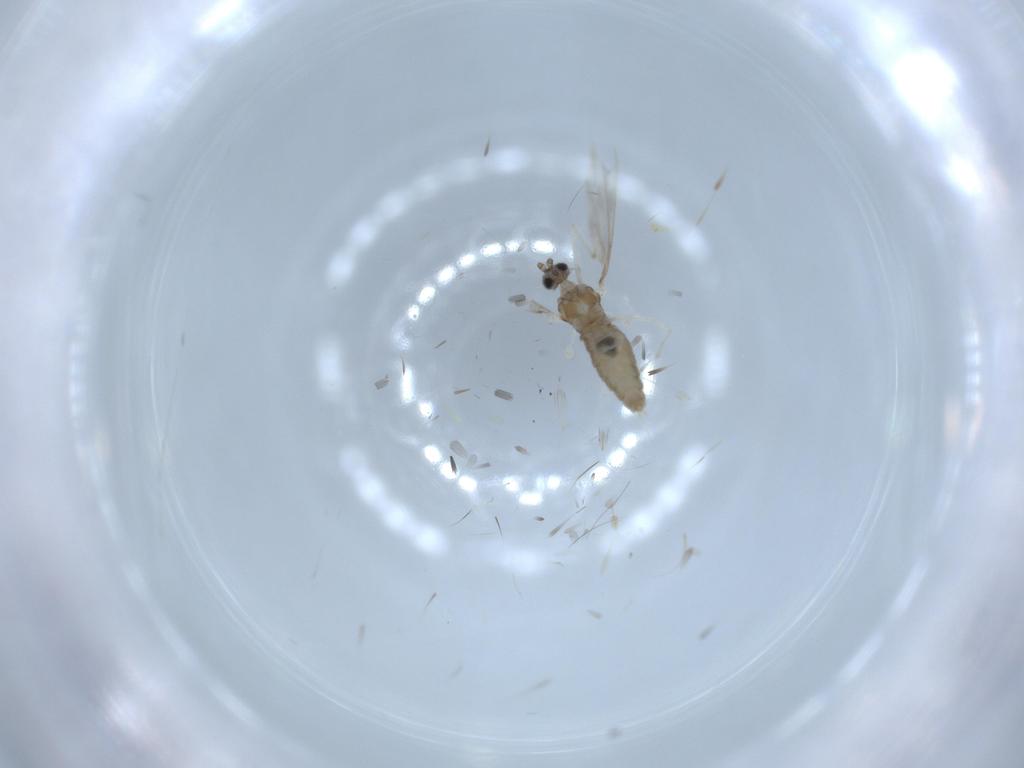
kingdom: Animalia
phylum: Arthropoda
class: Insecta
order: Diptera
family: Cecidomyiidae
